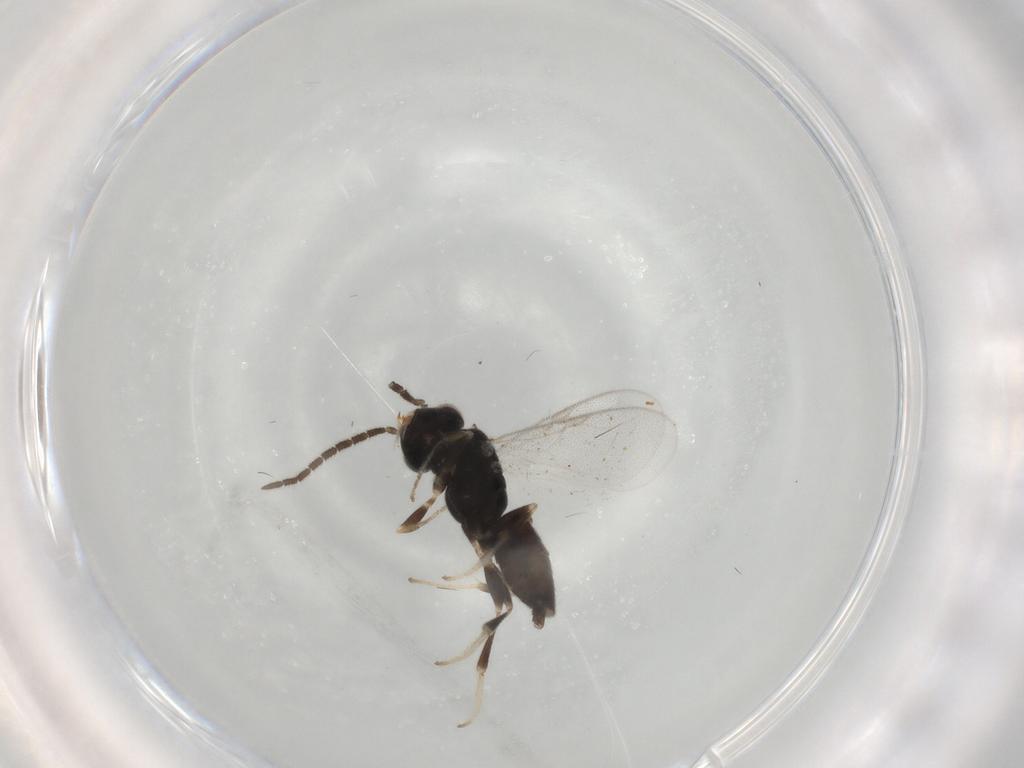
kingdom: Animalia
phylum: Arthropoda
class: Insecta
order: Hymenoptera
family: Dryinidae
